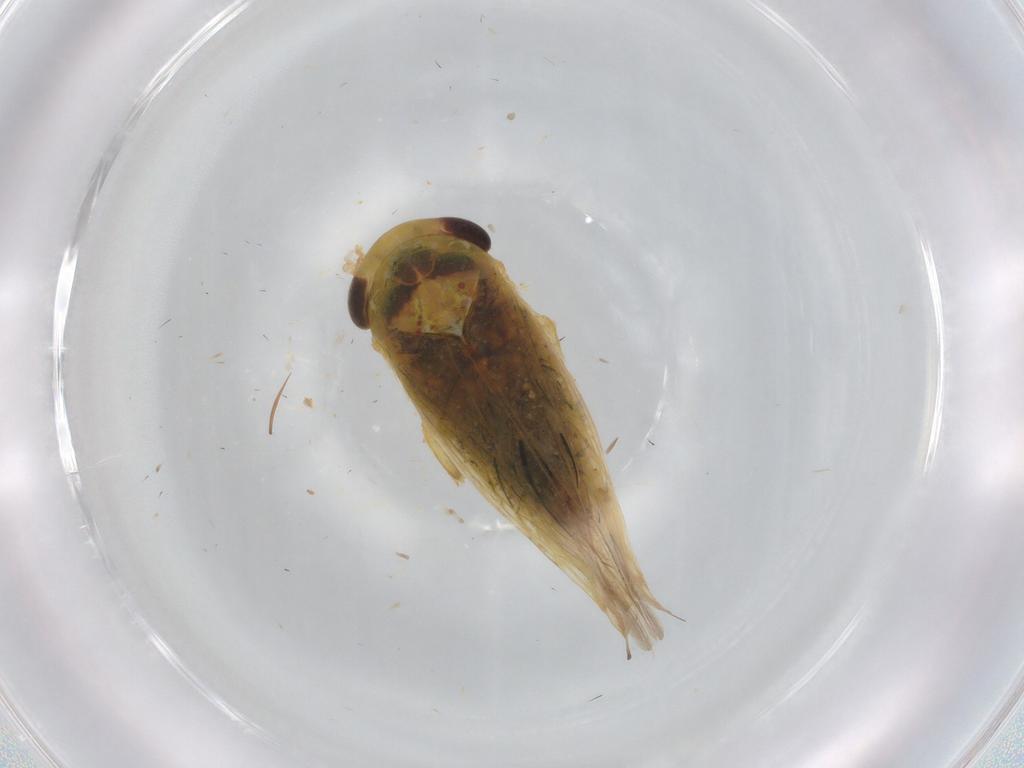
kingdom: Animalia
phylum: Arthropoda
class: Insecta
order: Hemiptera
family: Cicadellidae
